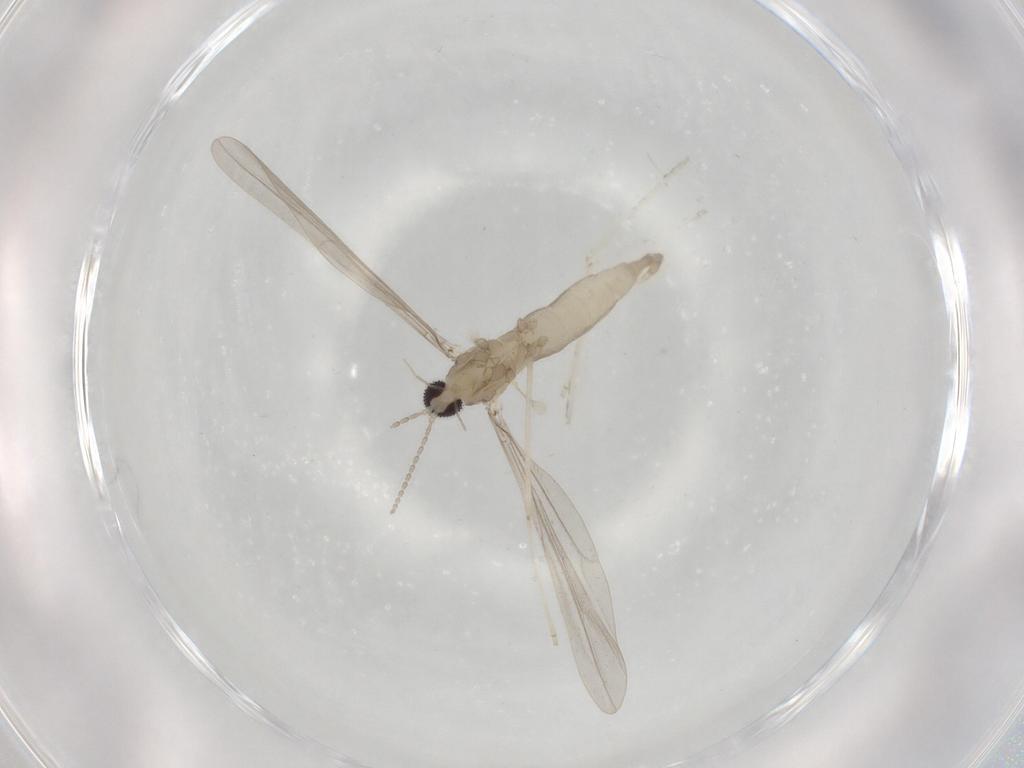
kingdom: Animalia
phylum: Arthropoda
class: Insecta
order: Diptera
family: Cecidomyiidae
